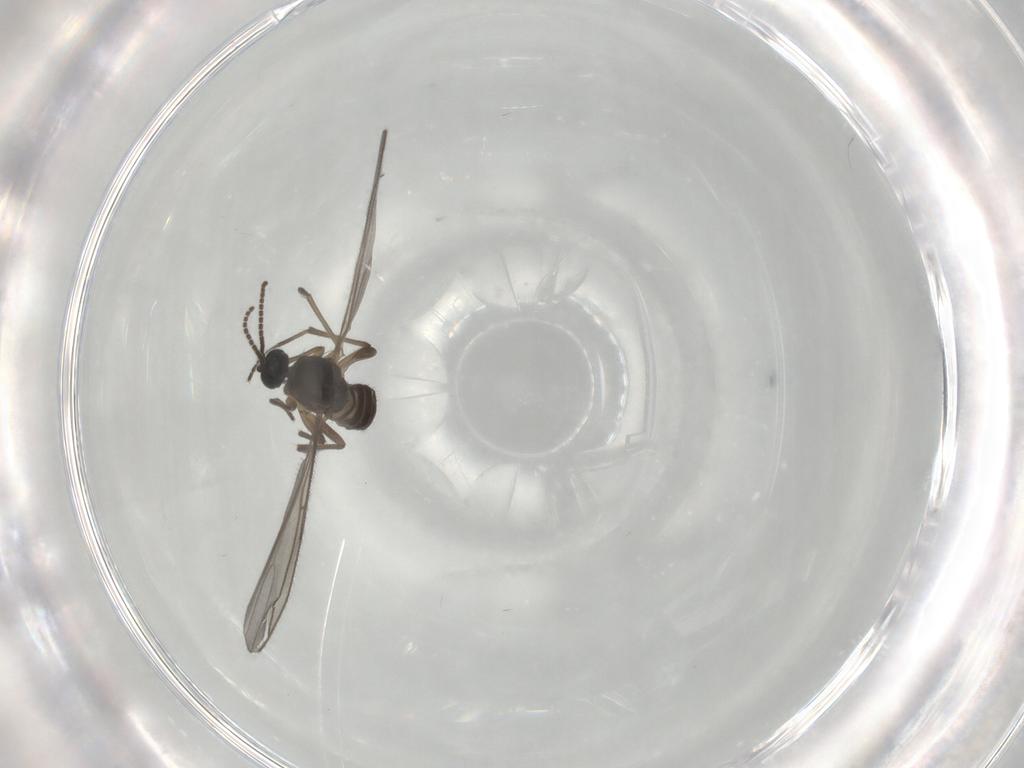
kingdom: Animalia
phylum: Arthropoda
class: Insecta
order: Diptera
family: Sciaridae
